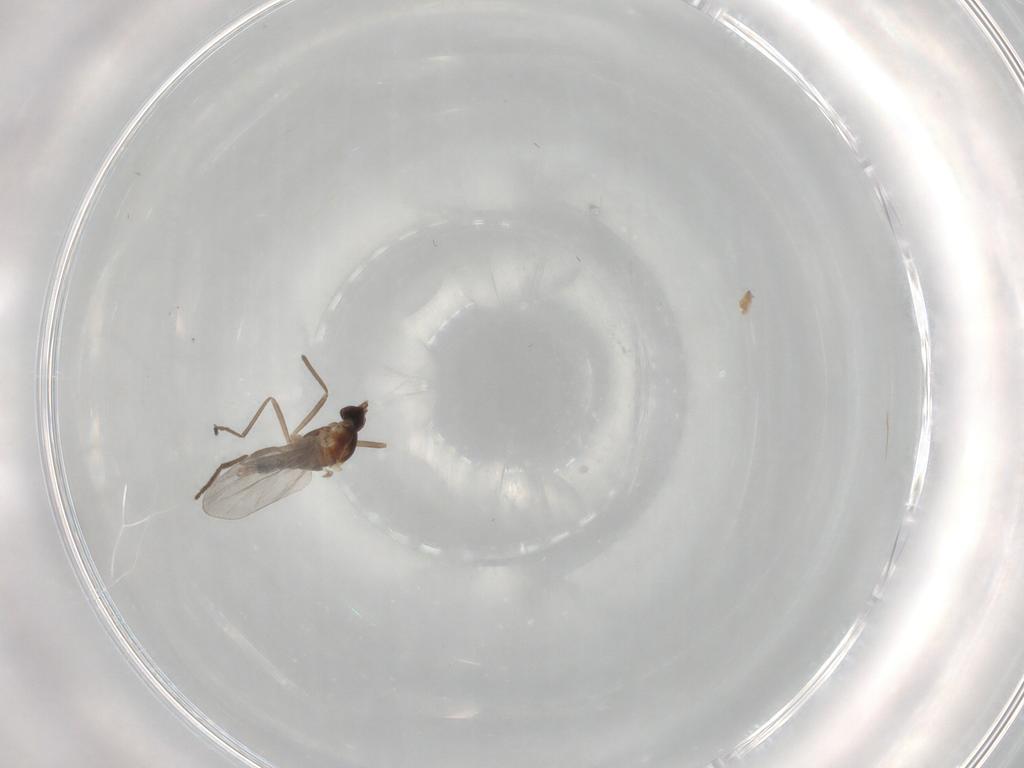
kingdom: Animalia
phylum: Arthropoda
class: Insecta
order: Diptera
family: Cecidomyiidae
